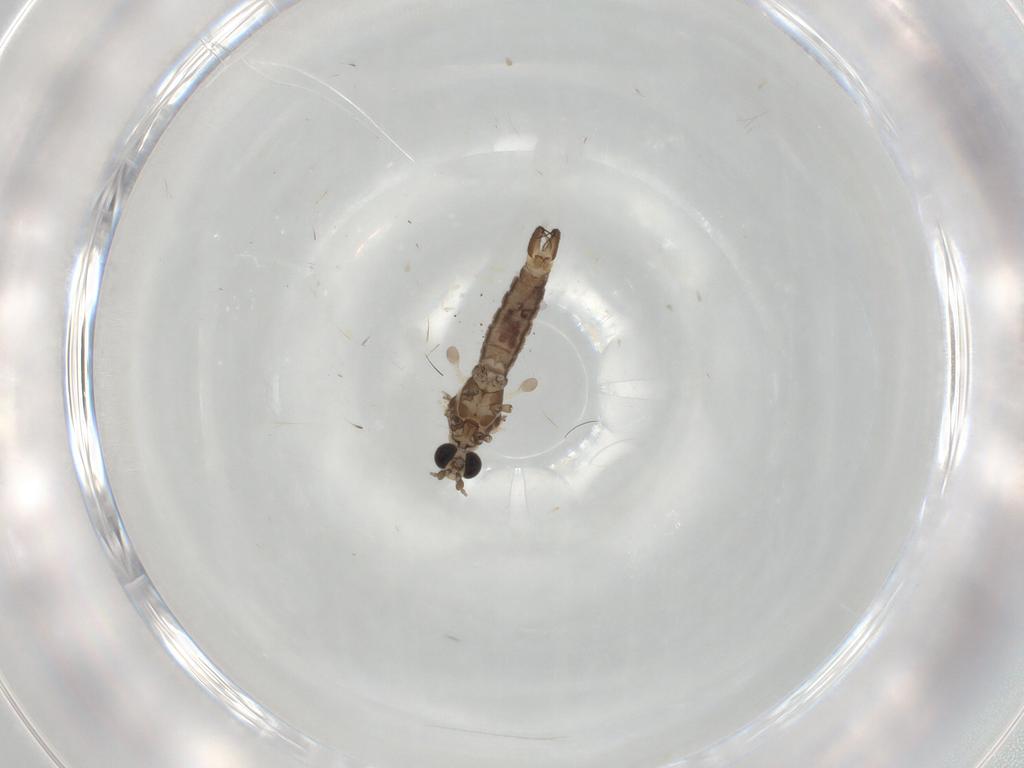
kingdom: Animalia
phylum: Arthropoda
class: Insecta
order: Diptera
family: Limoniidae
